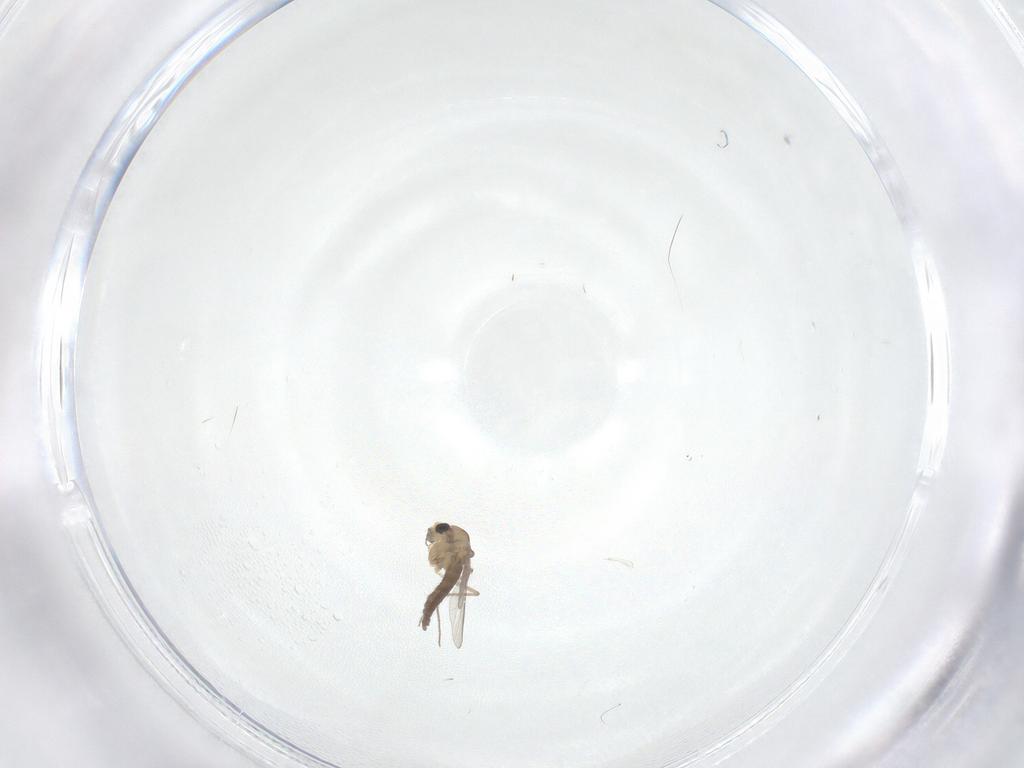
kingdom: Animalia
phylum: Arthropoda
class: Insecta
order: Diptera
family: Chironomidae
